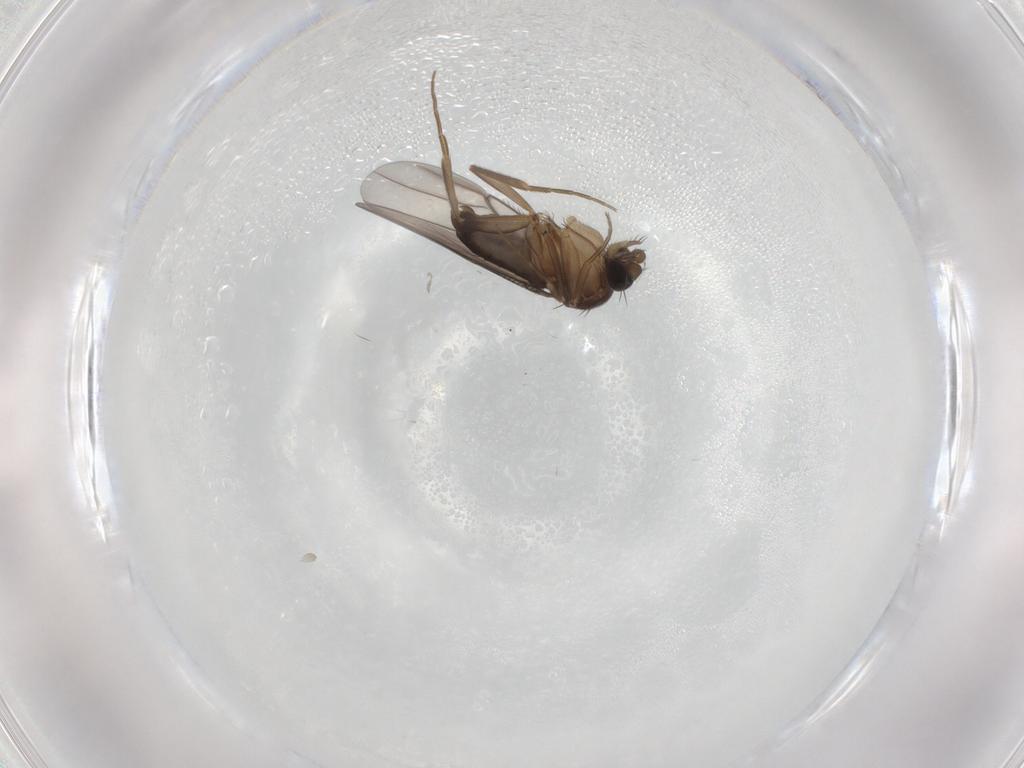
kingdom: Animalia
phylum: Arthropoda
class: Insecta
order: Diptera
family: Phoridae
